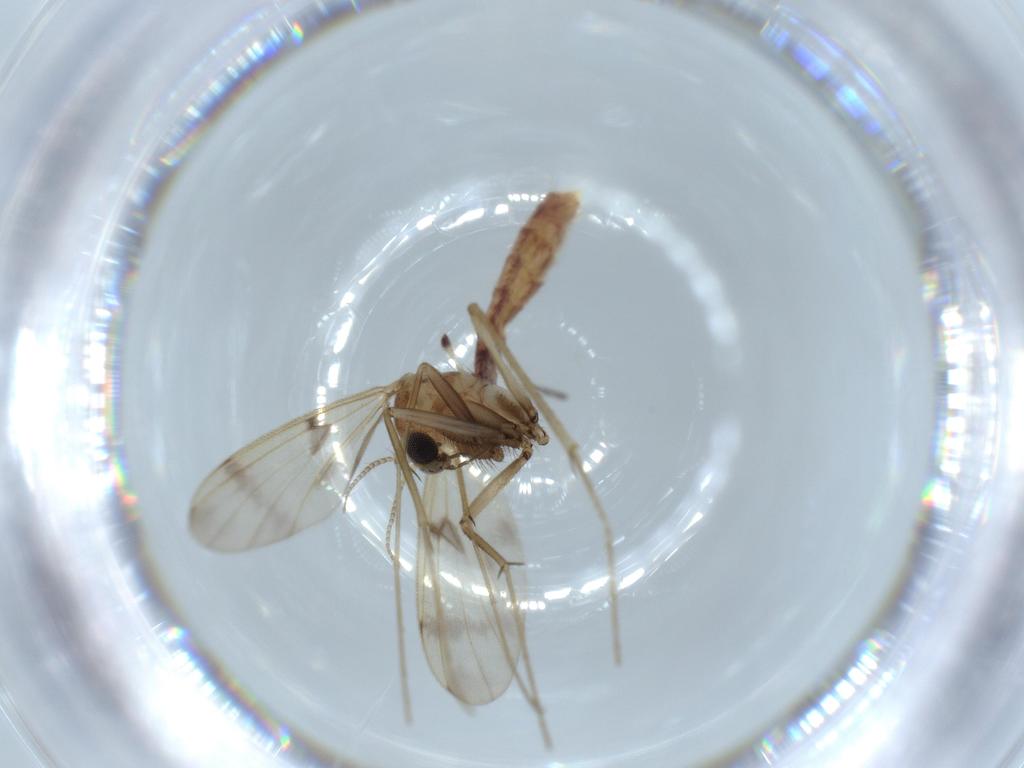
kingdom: Animalia
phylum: Arthropoda
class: Insecta
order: Diptera
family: Mycetophilidae
